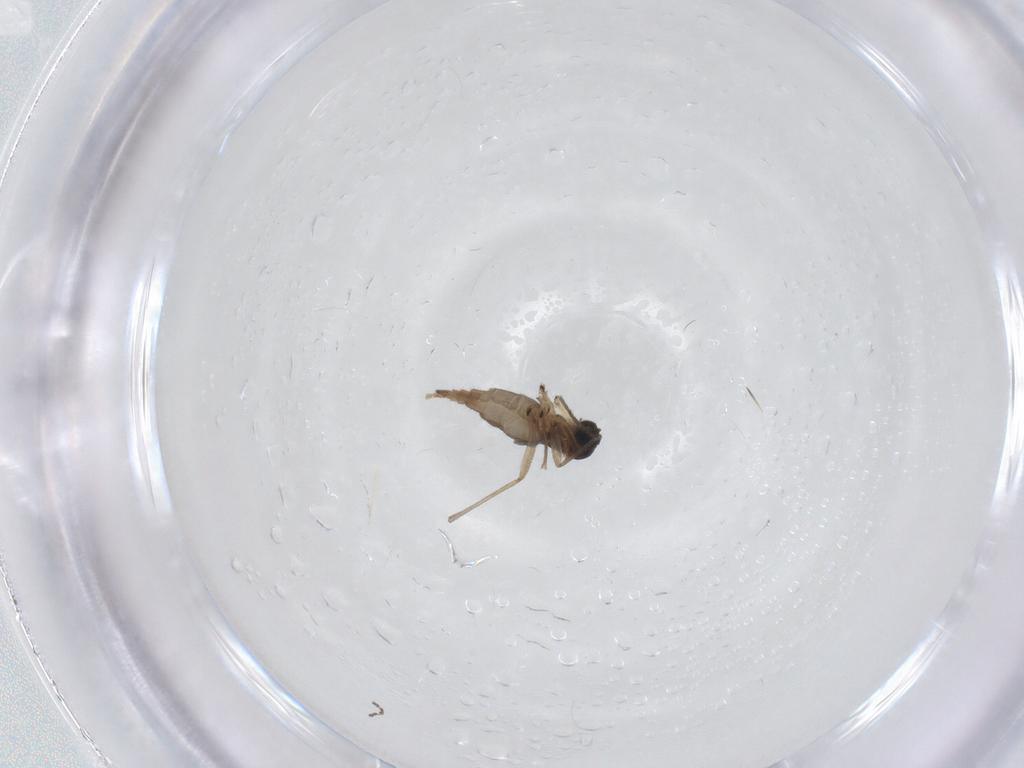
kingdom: Animalia
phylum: Arthropoda
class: Insecta
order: Diptera
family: Sciaridae
